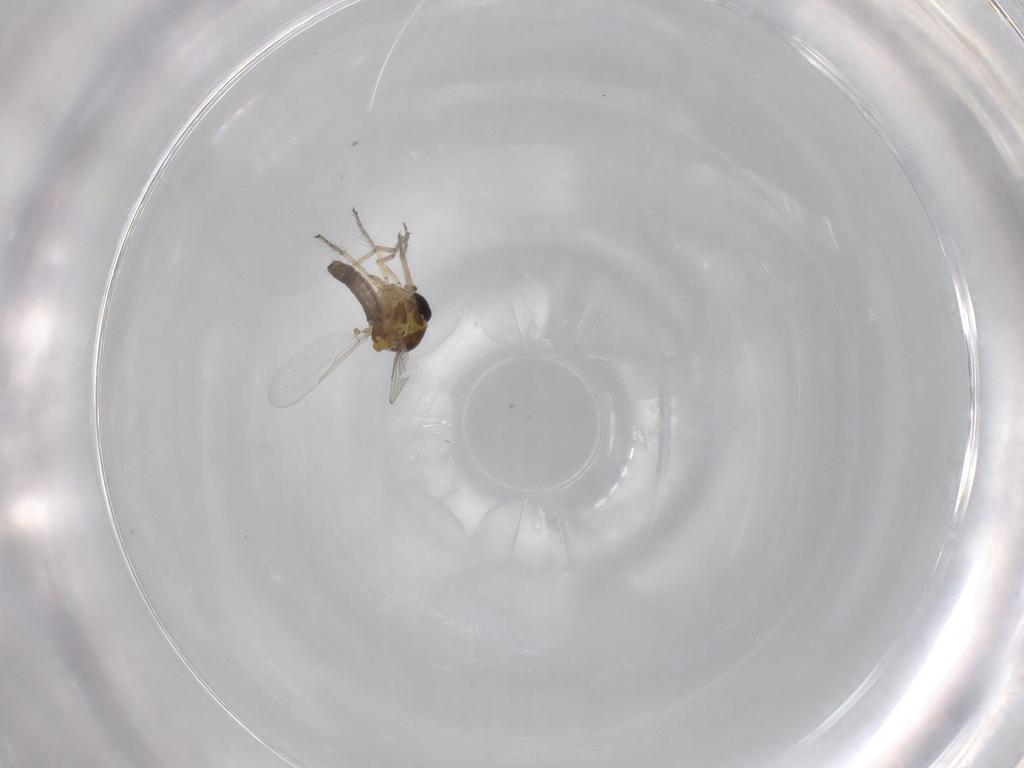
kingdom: Animalia
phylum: Arthropoda
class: Insecta
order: Diptera
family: Ceratopogonidae
